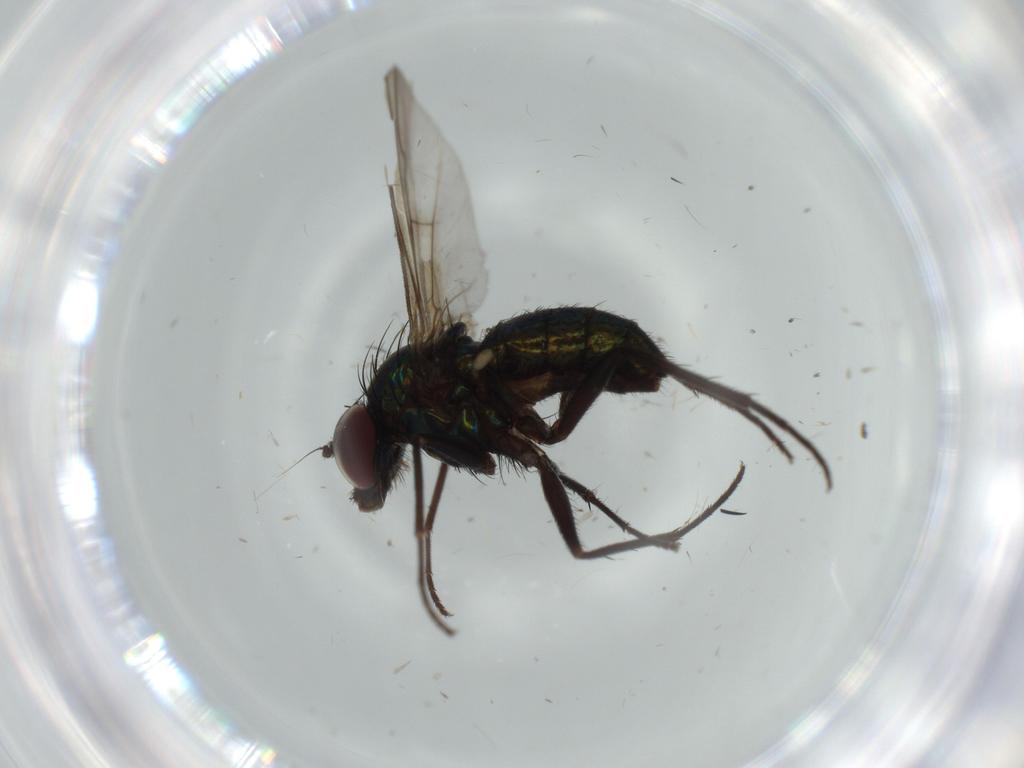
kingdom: Animalia
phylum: Arthropoda
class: Insecta
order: Diptera
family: Dolichopodidae
